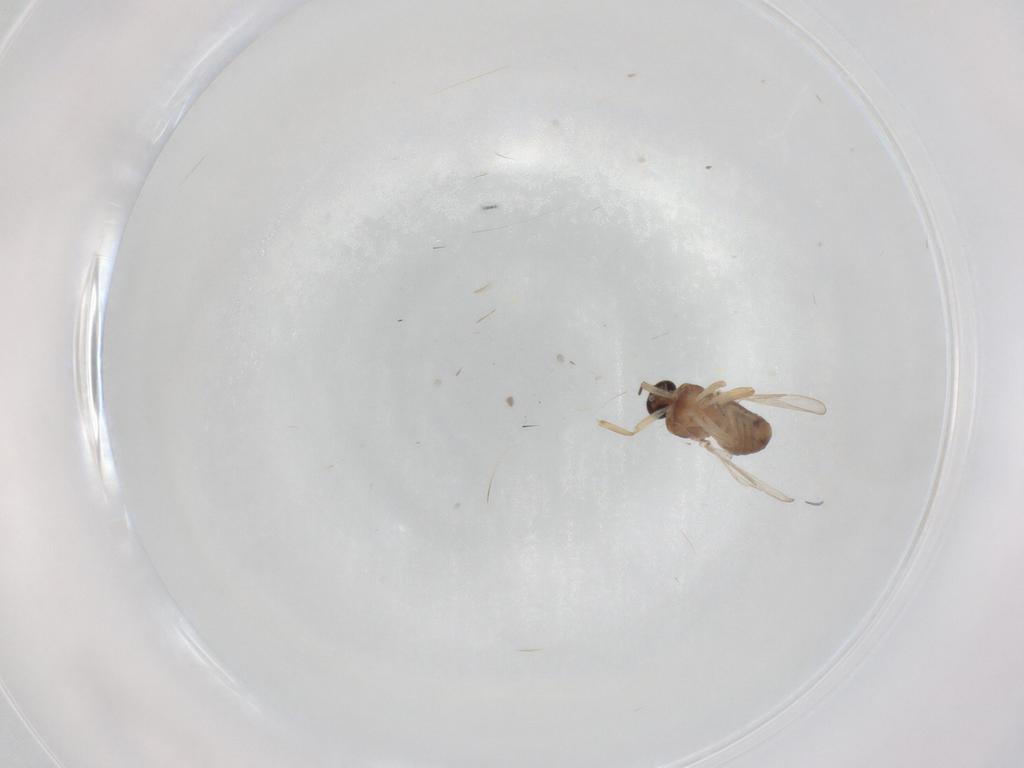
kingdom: Animalia
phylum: Arthropoda
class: Insecta
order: Diptera
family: Ceratopogonidae
